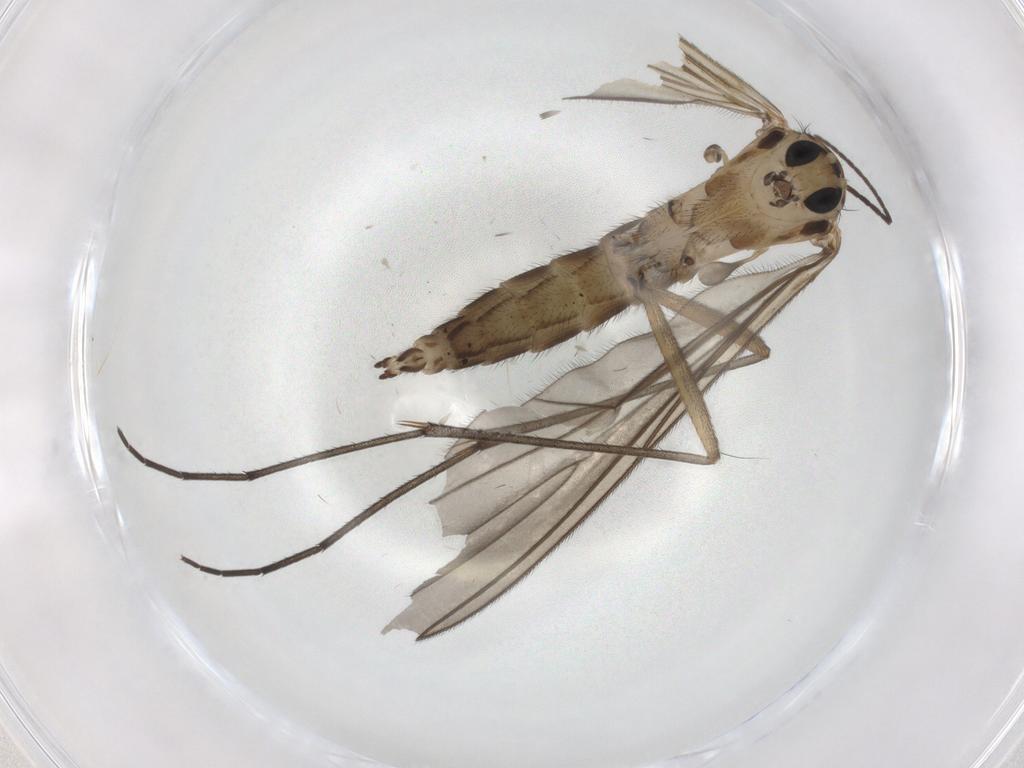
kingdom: Animalia
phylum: Arthropoda
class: Insecta
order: Diptera
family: Sciaridae
